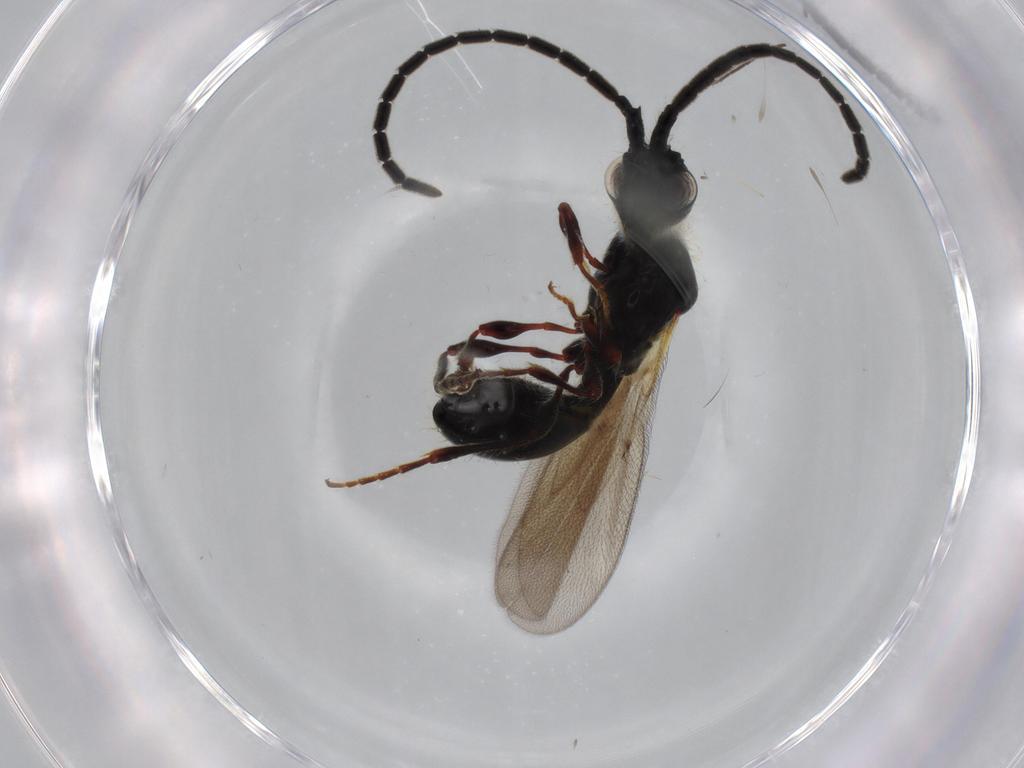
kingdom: Animalia
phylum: Arthropoda
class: Insecta
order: Hymenoptera
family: Diapriidae
